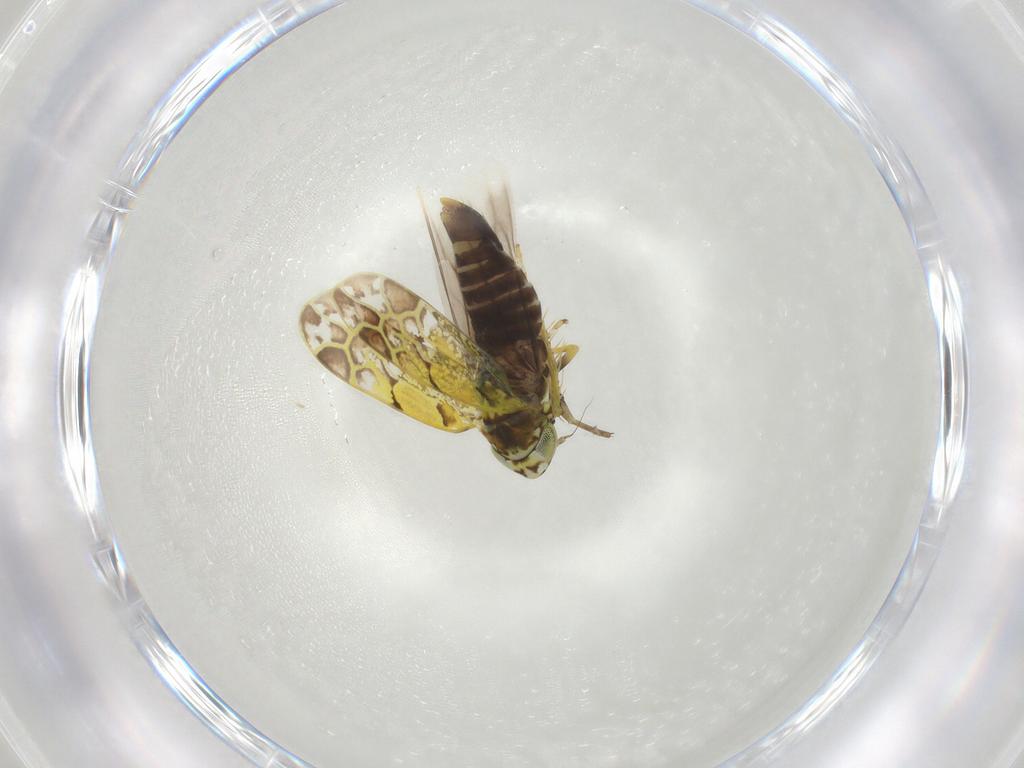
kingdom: Animalia
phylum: Arthropoda
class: Insecta
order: Hemiptera
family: Cicadellidae
